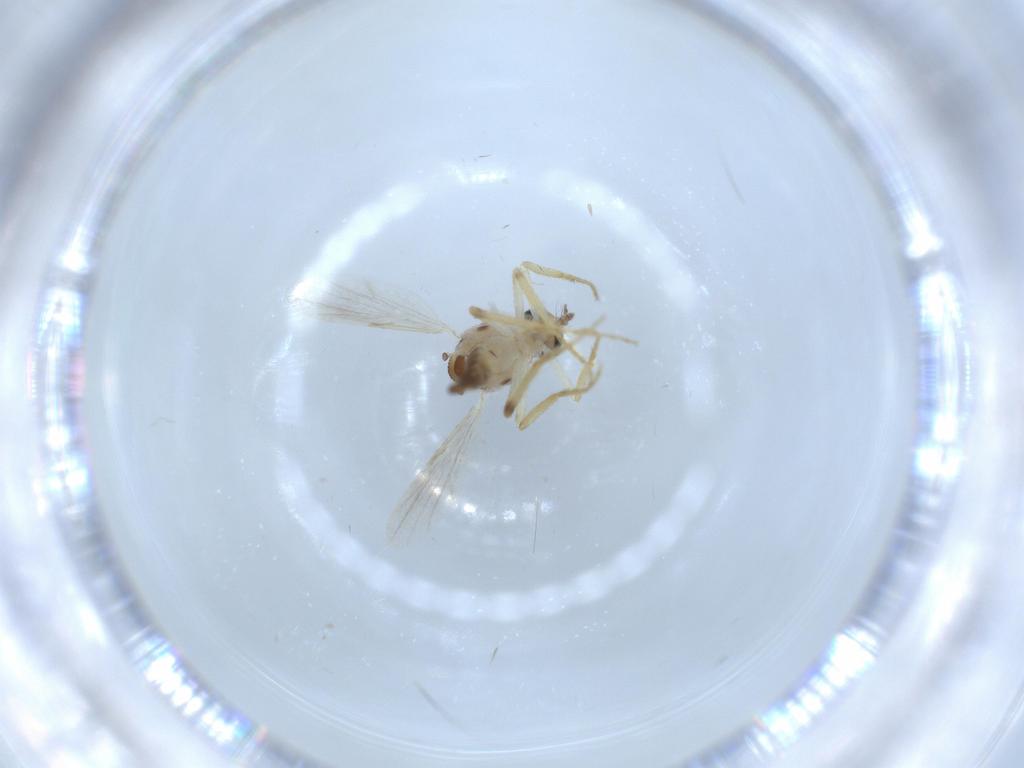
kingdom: Animalia
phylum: Arthropoda
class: Insecta
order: Diptera
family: Ceratopogonidae
